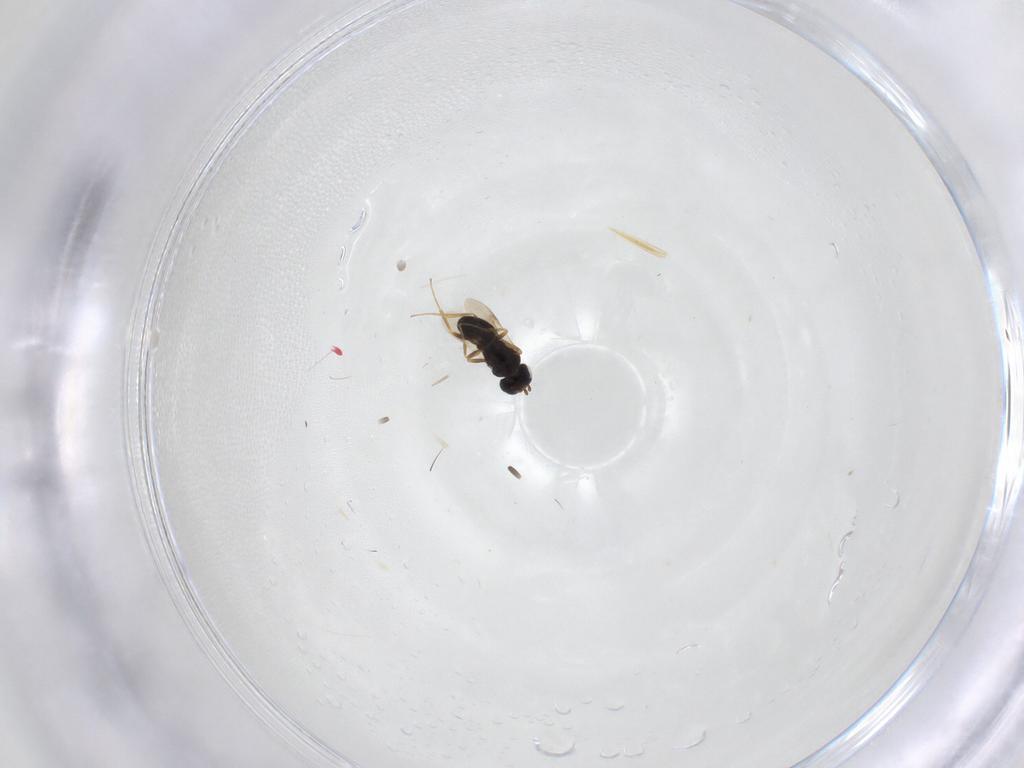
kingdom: Animalia
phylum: Arthropoda
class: Insecta
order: Hymenoptera
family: Scelionidae
